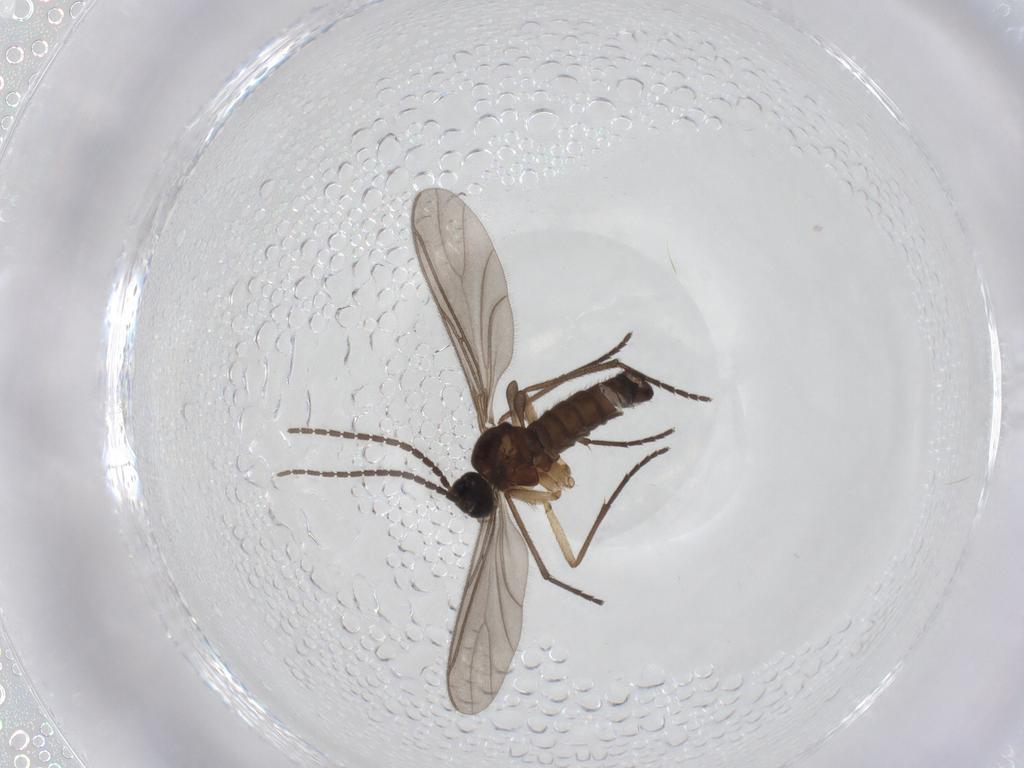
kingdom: Animalia
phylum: Arthropoda
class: Insecta
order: Diptera
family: Sciaridae
